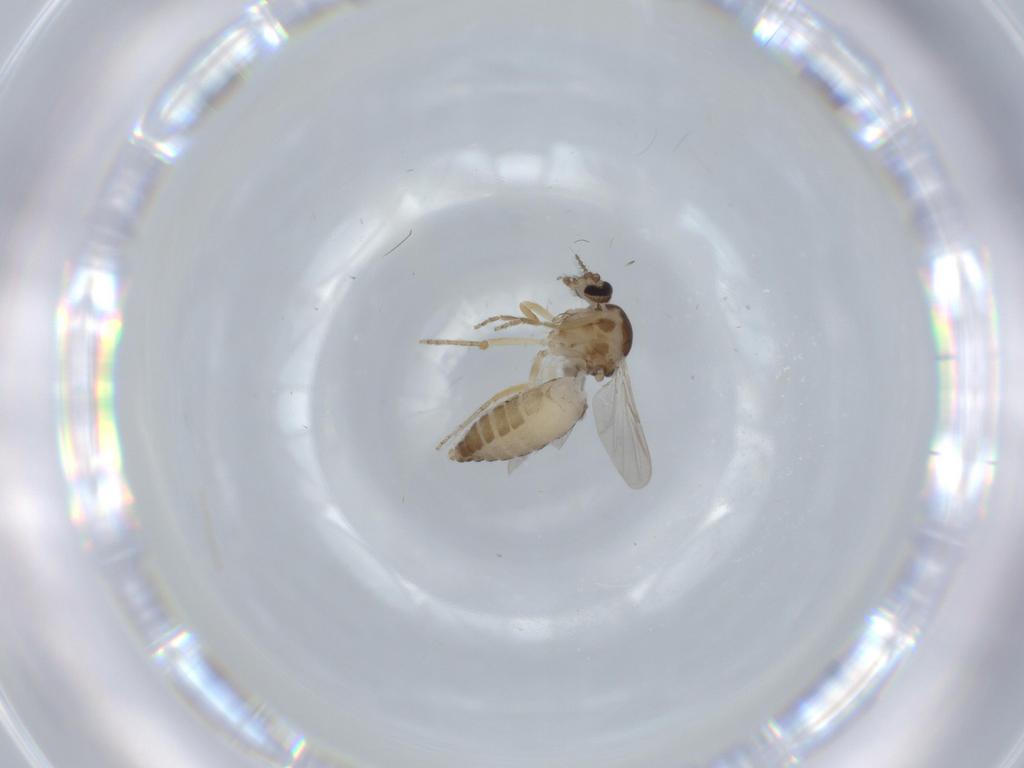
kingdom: Animalia
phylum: Arthropoda
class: Insecta
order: Diptera
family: Ceratopogonidae
